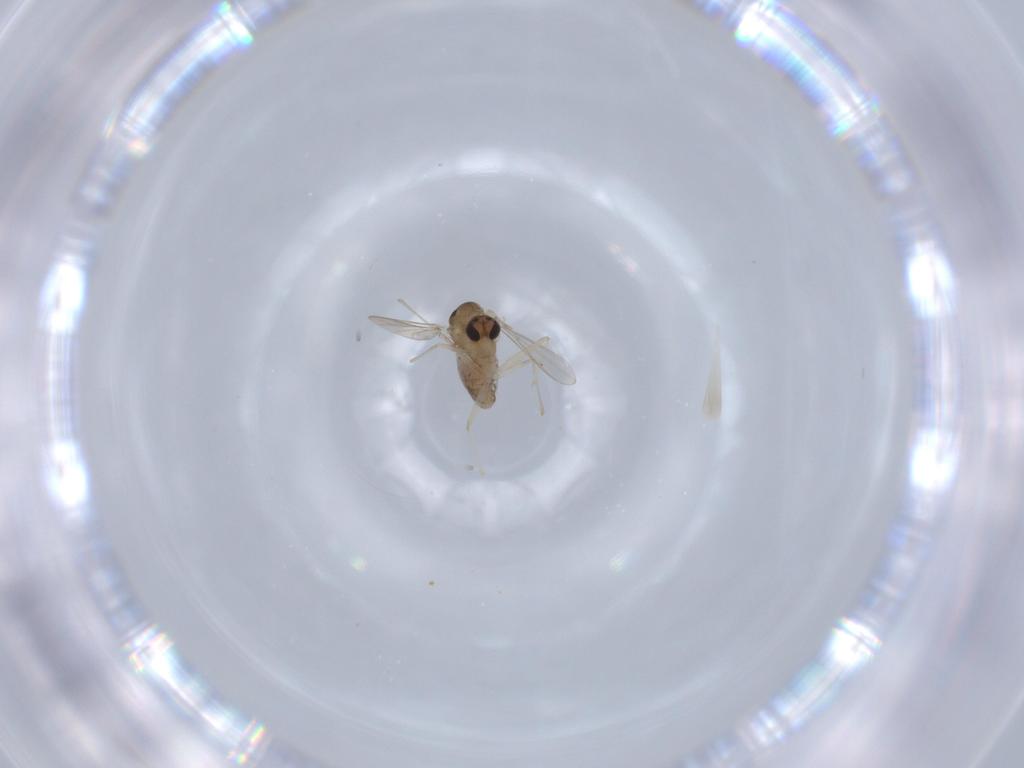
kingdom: Animalia
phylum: Arthropoda
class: Insecta
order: Diptera
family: Chironomidae
